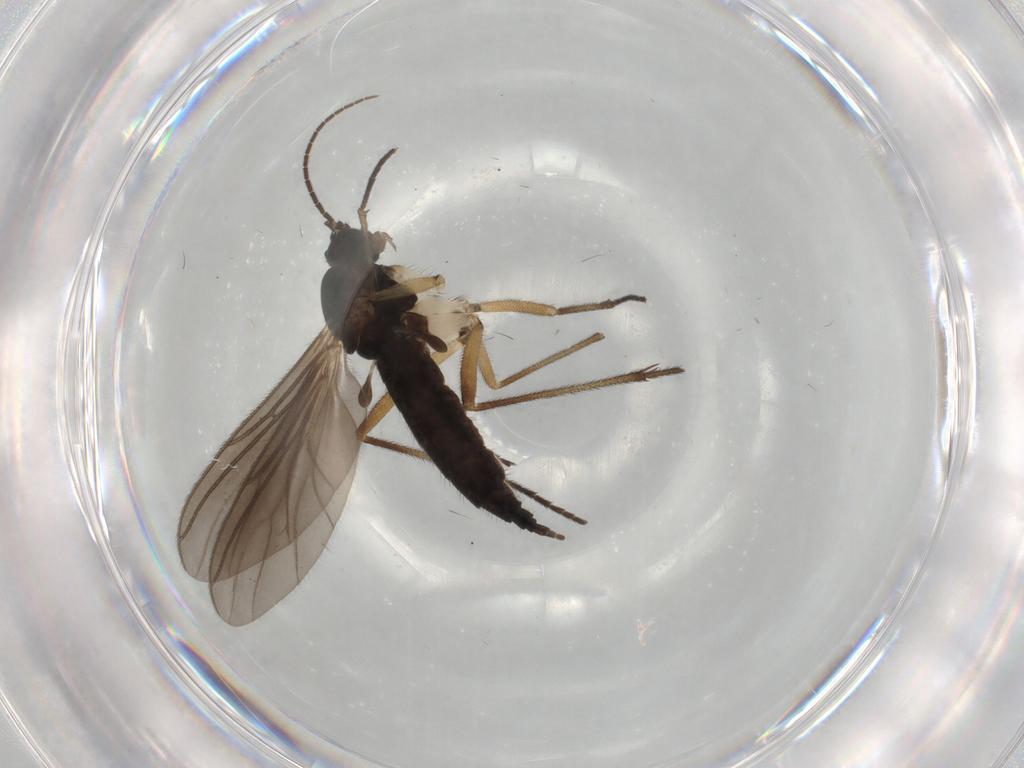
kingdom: Animalia
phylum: Arthropoda
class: Insecta
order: Diptera
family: Sciaridae
